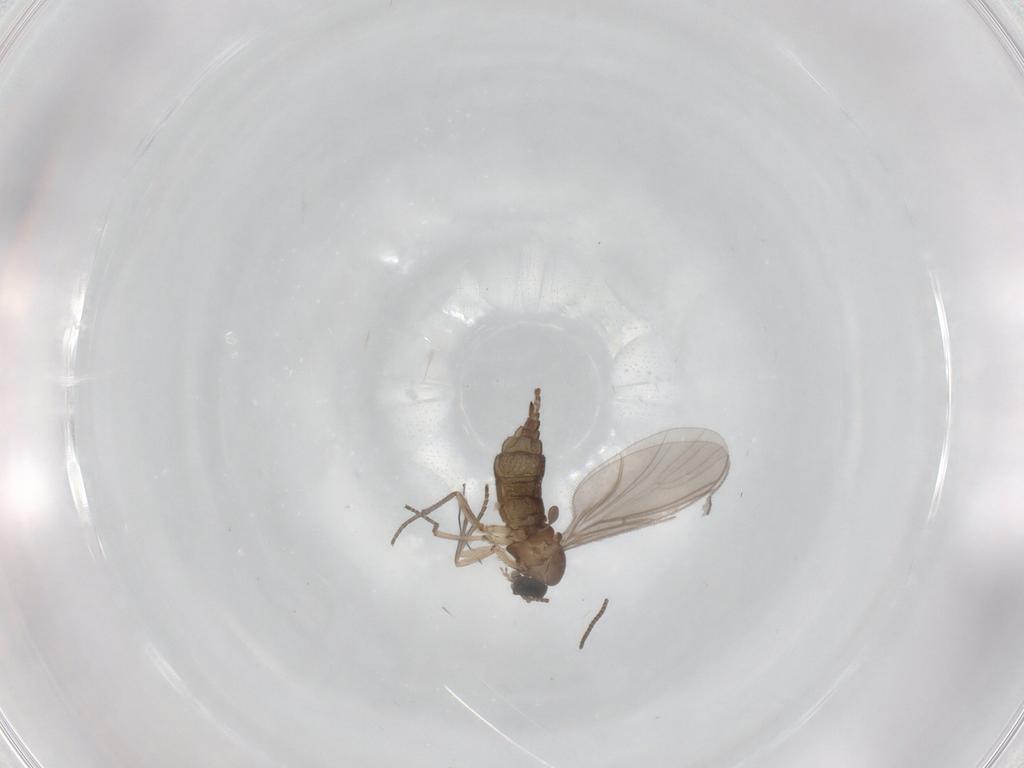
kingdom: Animalia
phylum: Arthropoda
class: Insecta
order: Diptera
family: Sciaridae
